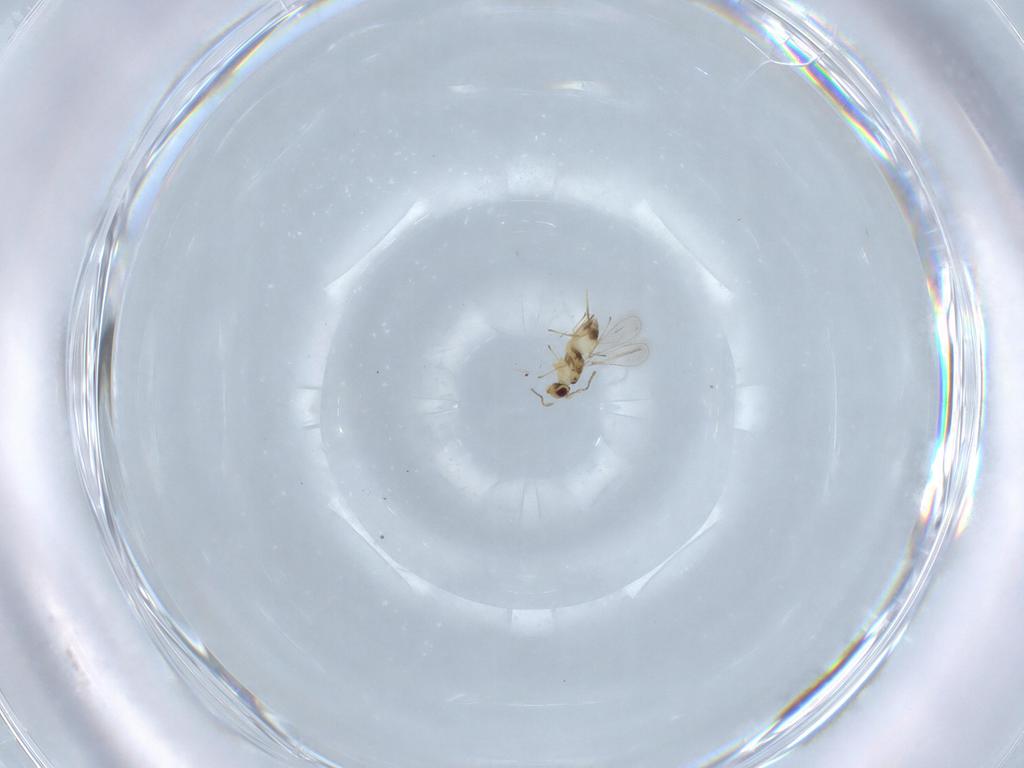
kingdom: Animalia
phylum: Arthropoda
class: Insecta
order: Hymenoptera
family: Mymaridae
